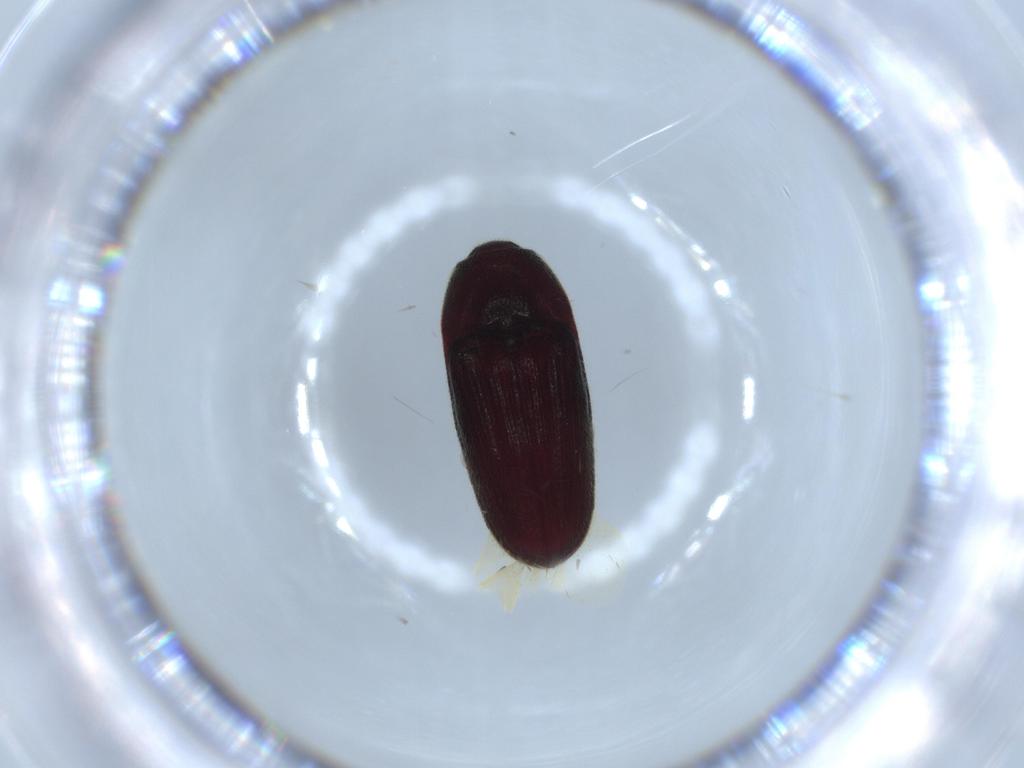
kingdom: Animalia
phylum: Arthropoda
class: Insecta
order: Coleoptera
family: Throscidae
